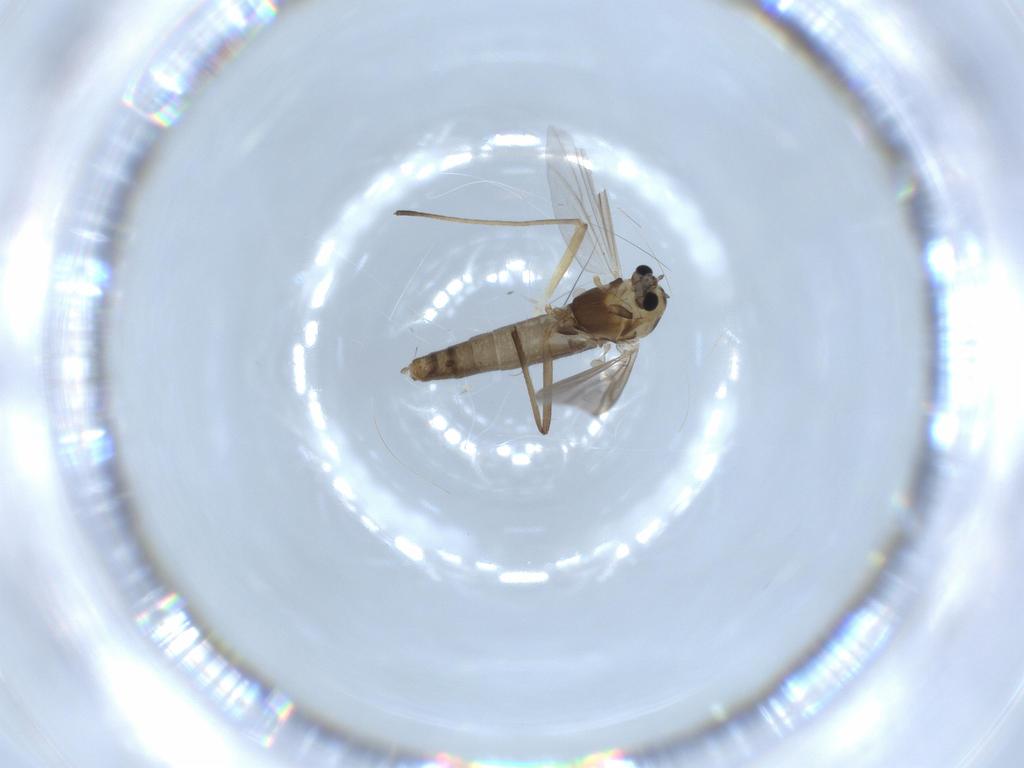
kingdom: Animalia
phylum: Arthropoda
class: Insecta
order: Diptera
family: Chironomidae
